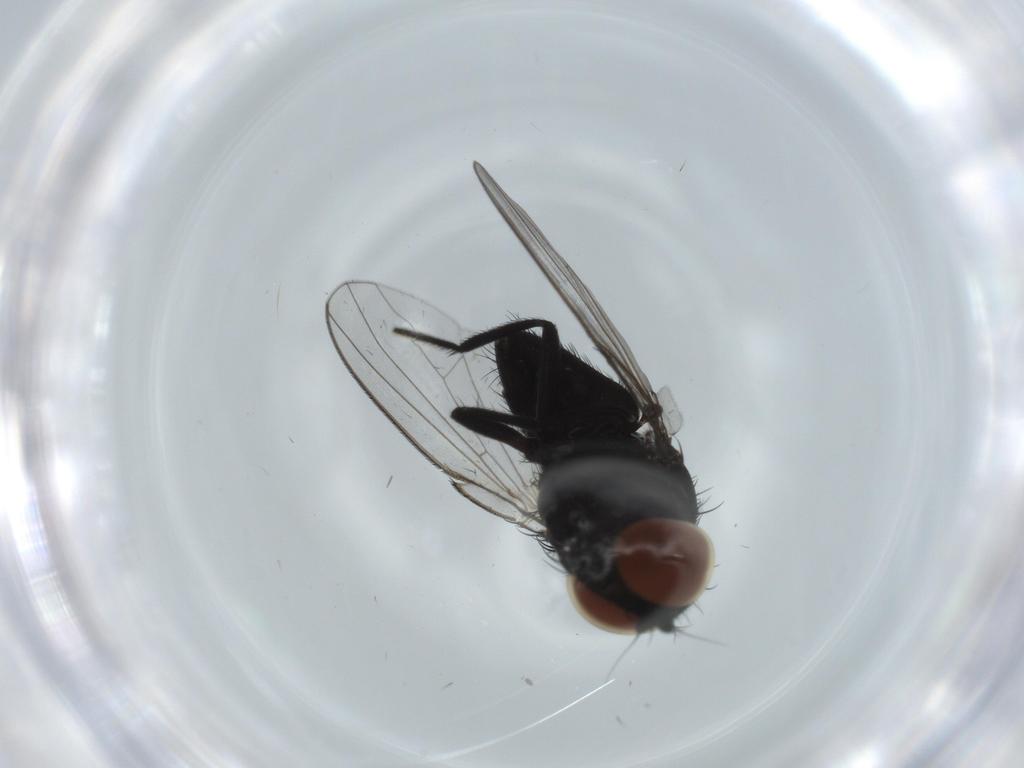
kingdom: Animalia
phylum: Arthropoda
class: Insecta
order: Diptera
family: Milichiidae
